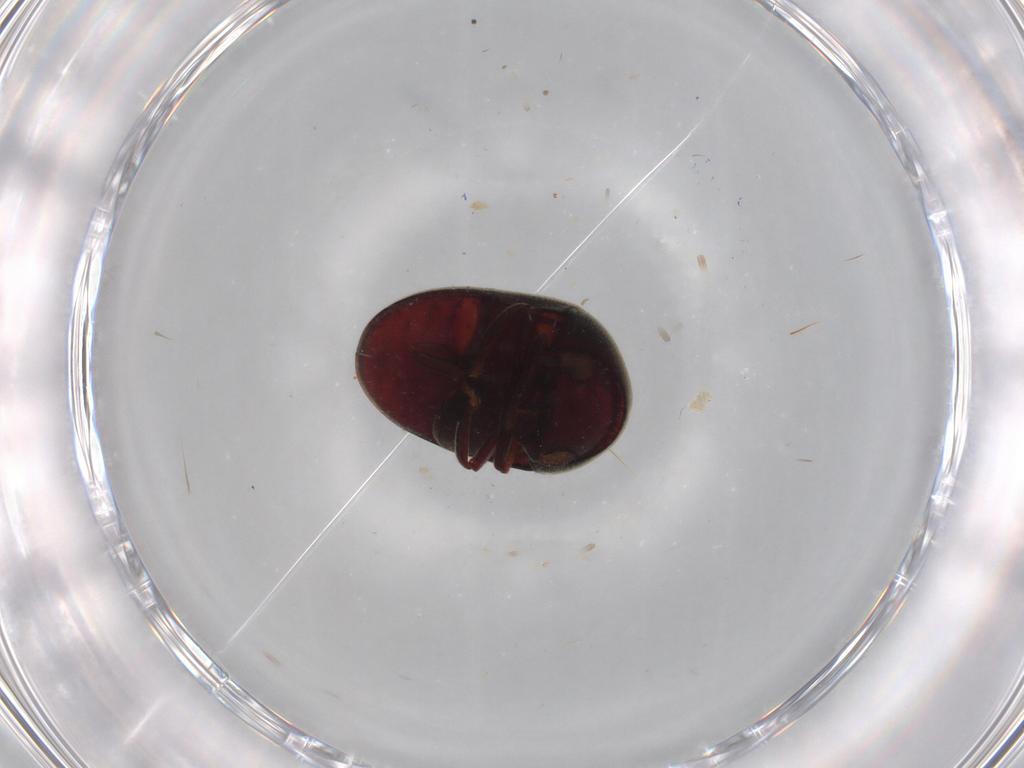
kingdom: Animalia
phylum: Arthropoda
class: Insecta
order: Coleoptera
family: Ptinidae
